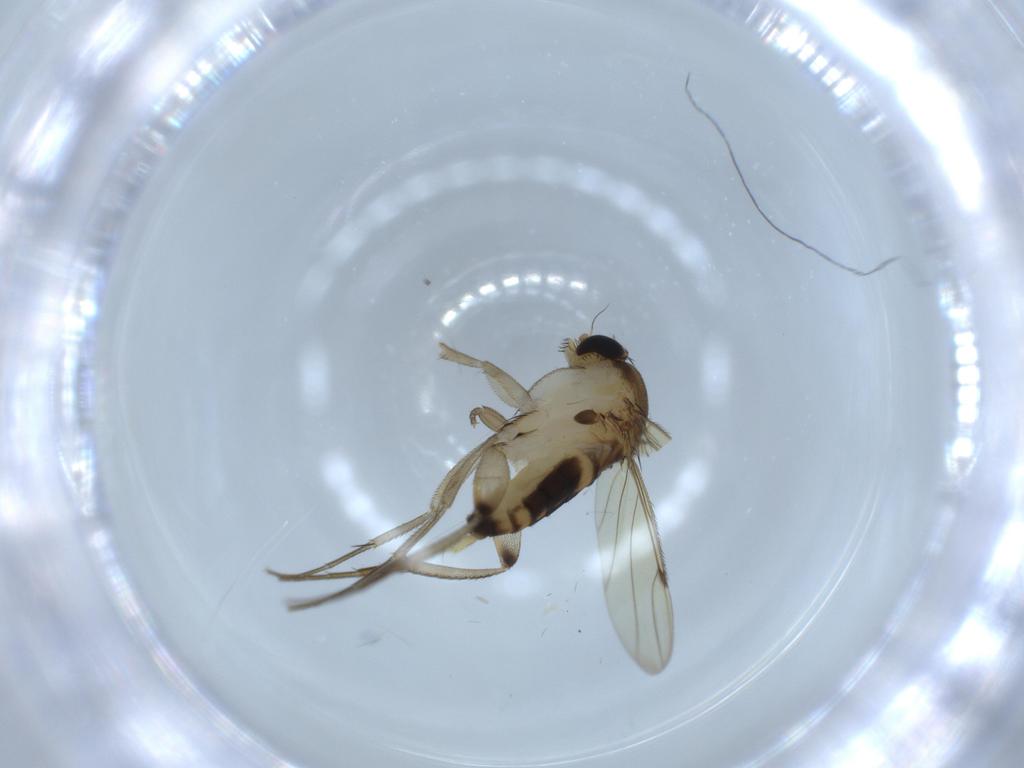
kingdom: Animalia
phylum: Arthropoda
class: Insecta
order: Diptera
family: Phoridae
